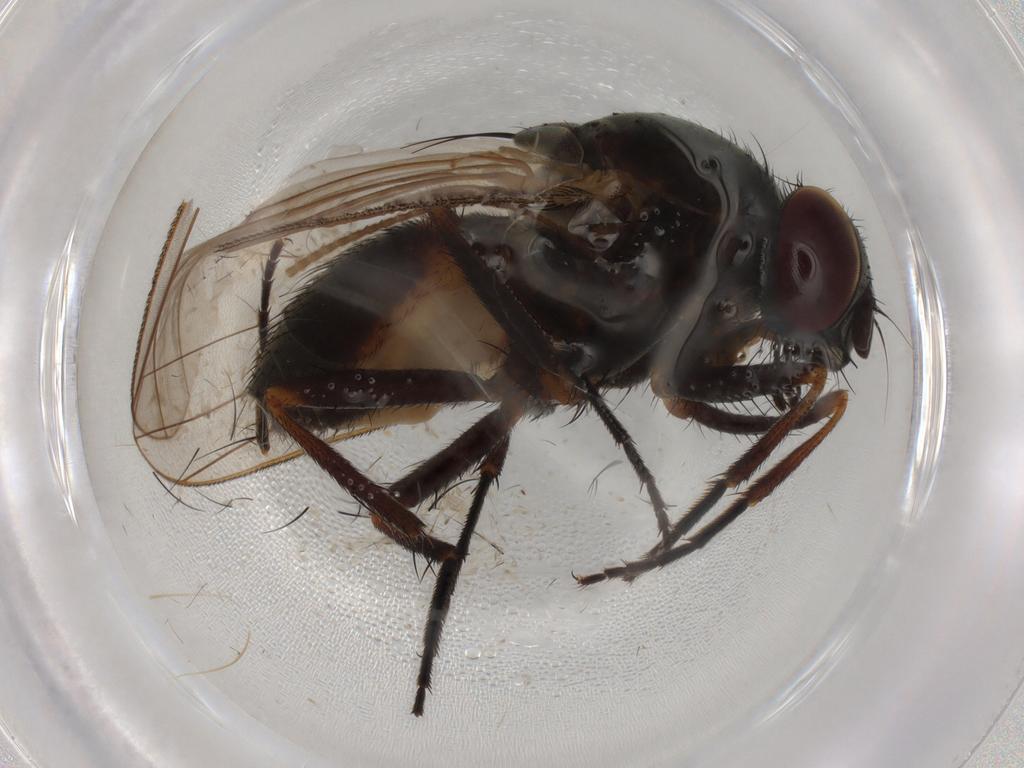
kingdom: Animalia
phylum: Arthropoda
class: Insecta
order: Diptera
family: Fannia
